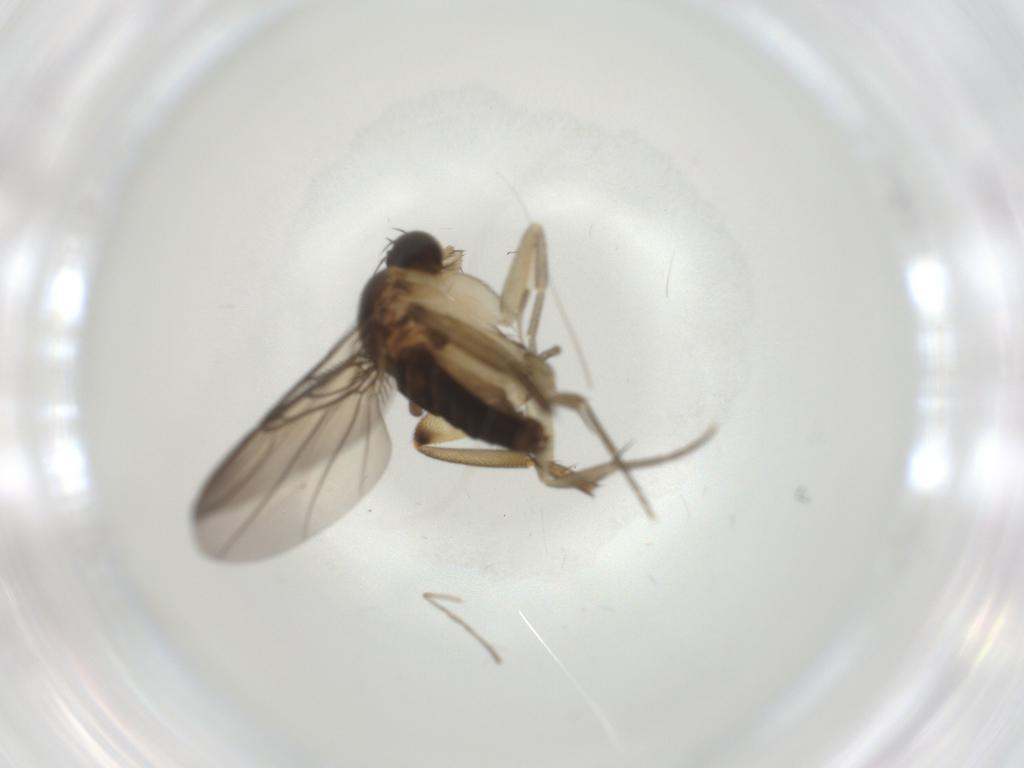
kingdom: Animalia
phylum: Arthropoda
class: Insecta
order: Diptera
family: Phoridae
